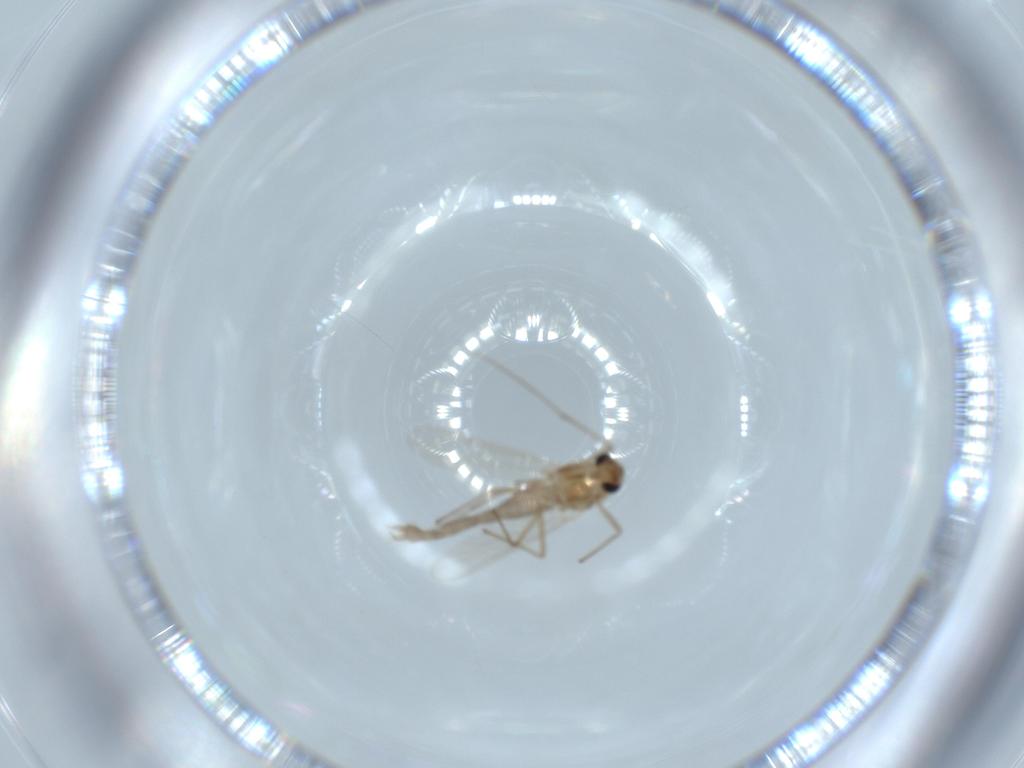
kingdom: Animalia
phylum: Arthropoda
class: Insecta
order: Diptera
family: Chironomidae
